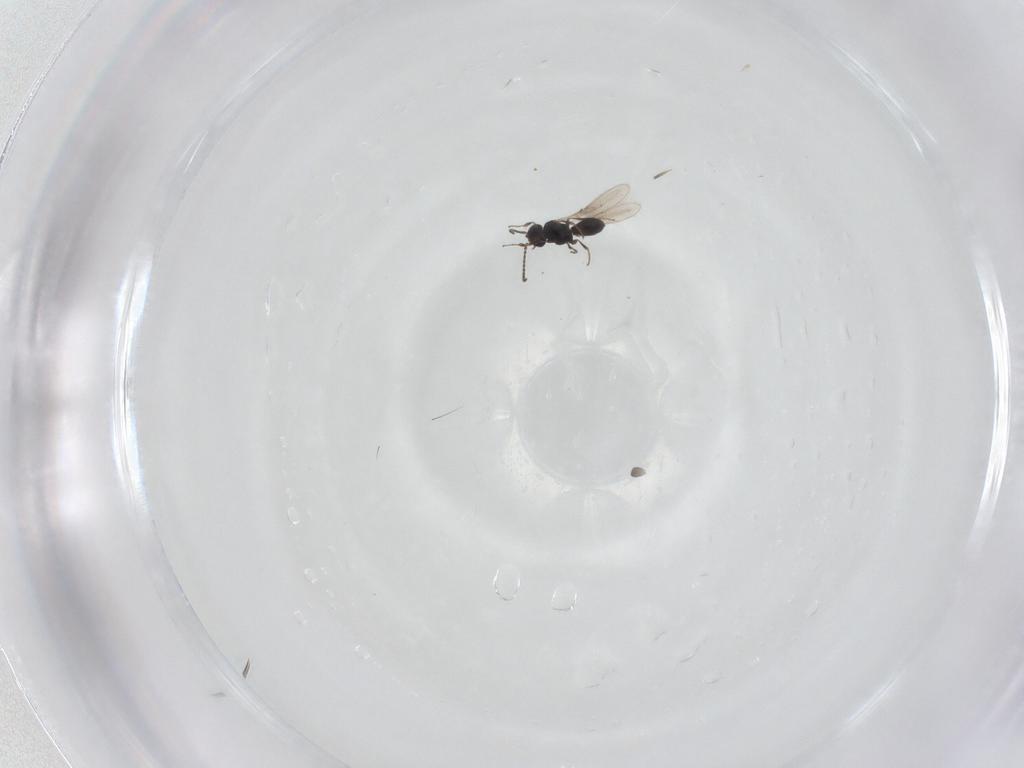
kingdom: Animalia
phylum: Arthropoda
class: Insecta
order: Hymenoptera
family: Scelionidae
